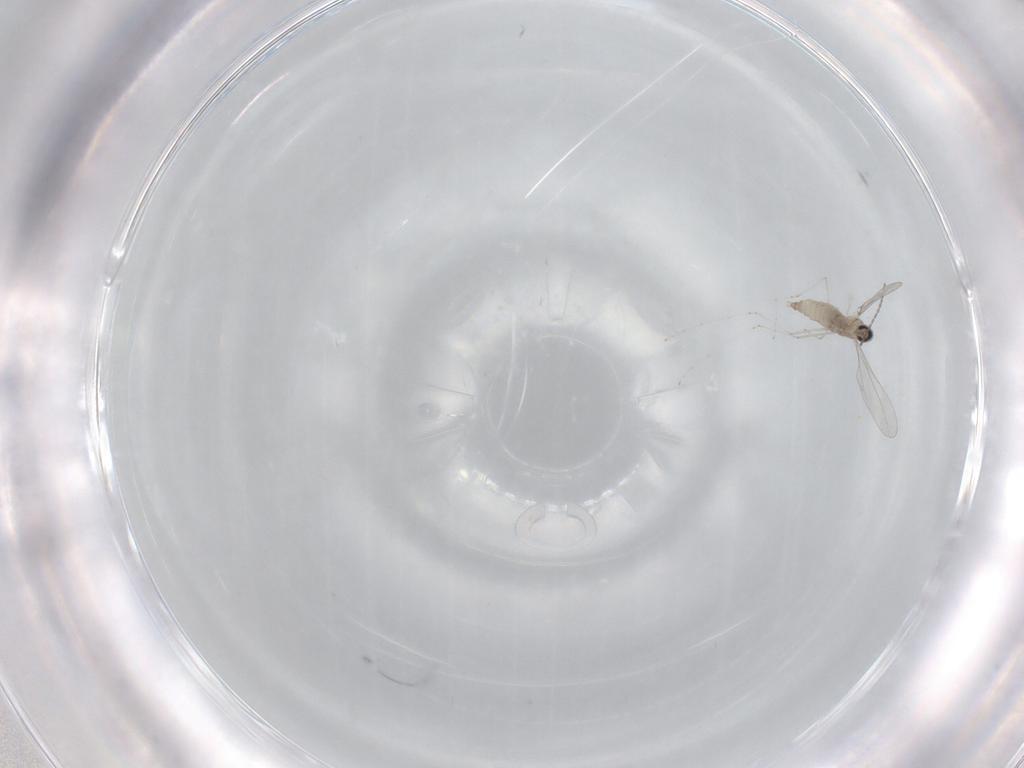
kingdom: Animalia
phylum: Arthropoda
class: Insecta
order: Diptera
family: Cecidomyiidae
